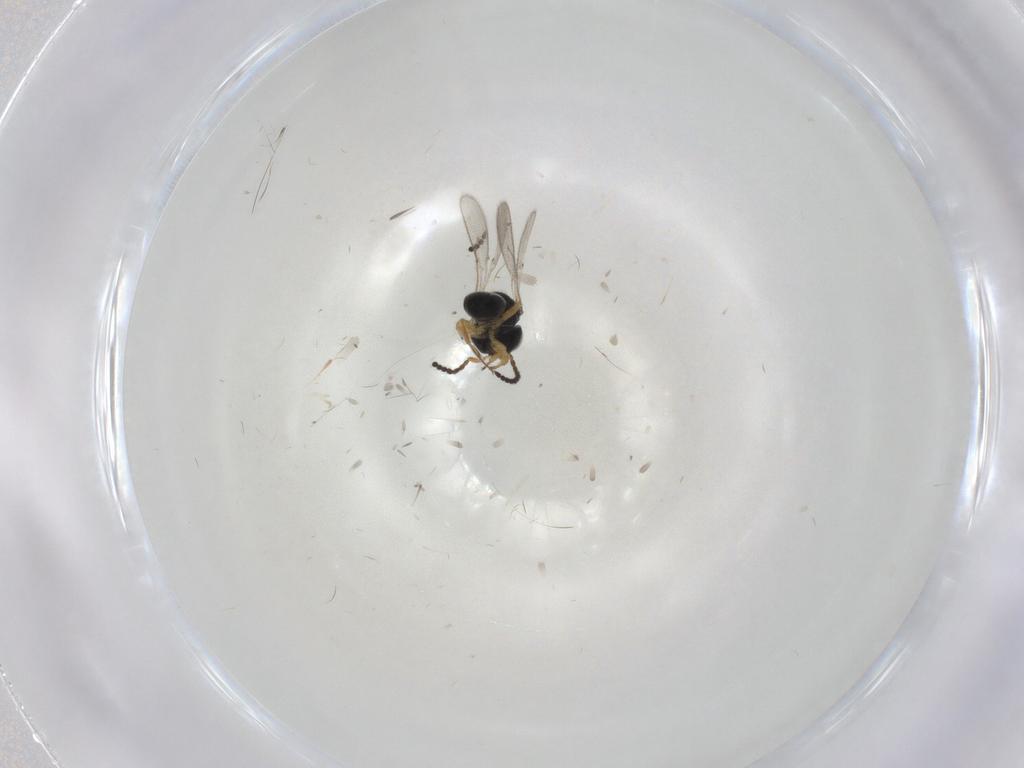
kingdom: Animalia
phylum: Arthropoda
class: Insecta
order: Hymenoptera
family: Scelionidae
